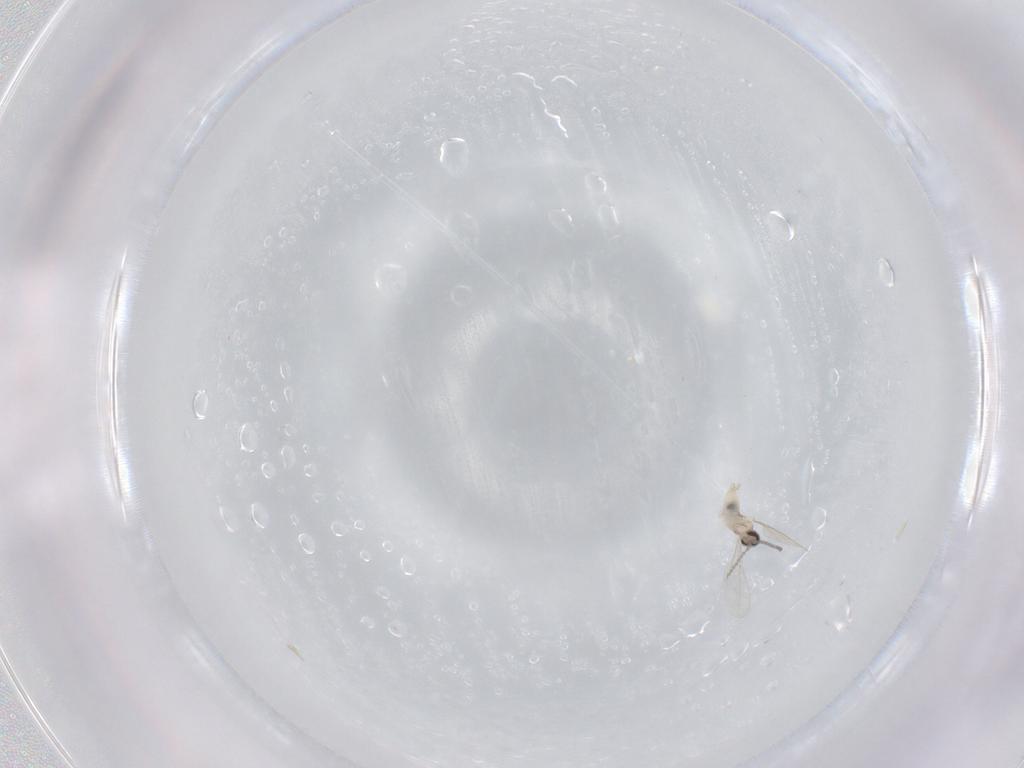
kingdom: Animalia
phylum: Arthropoda
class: Insecta
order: Diptera
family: Cecidomyiidae
